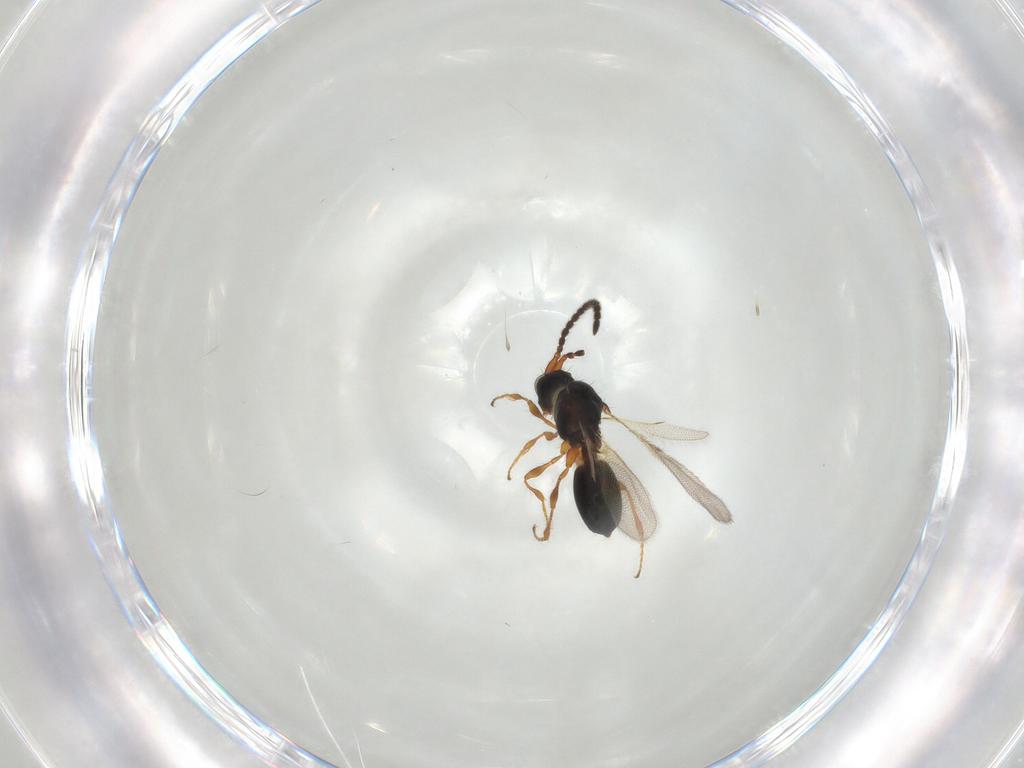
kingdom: Animalia
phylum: Arthropoda
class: Insecta
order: Hymenoptera
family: Diapriidae
